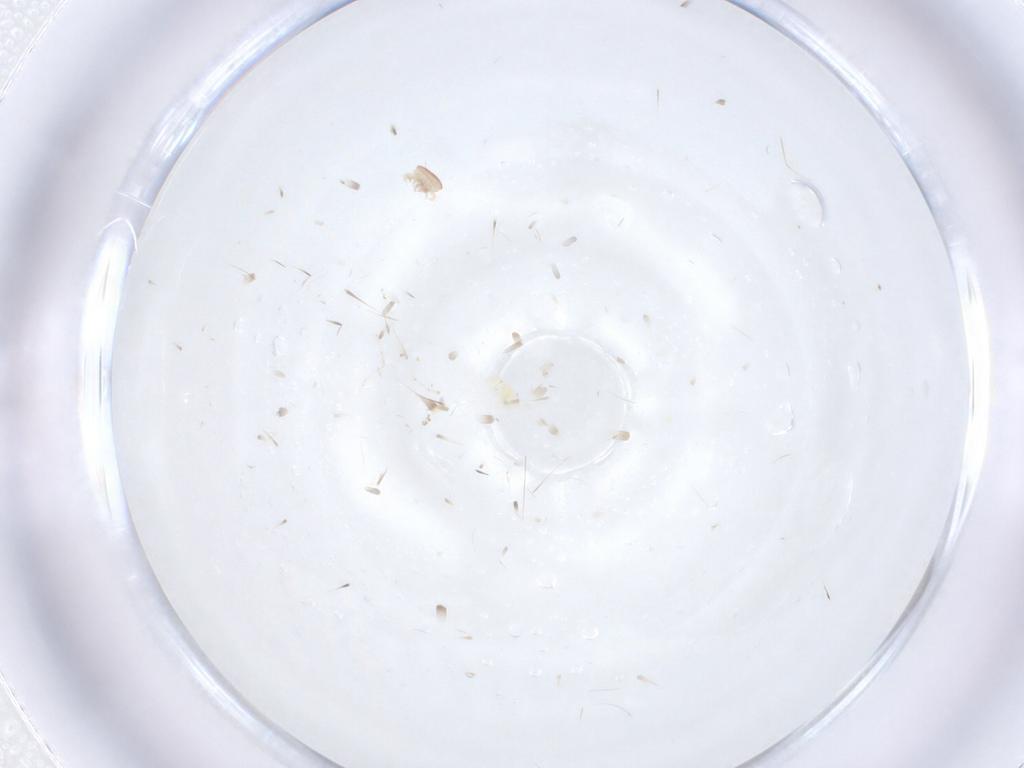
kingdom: Animalia
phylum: Arthropoda
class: Insecta
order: Diptera
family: Cecidomyiidae
